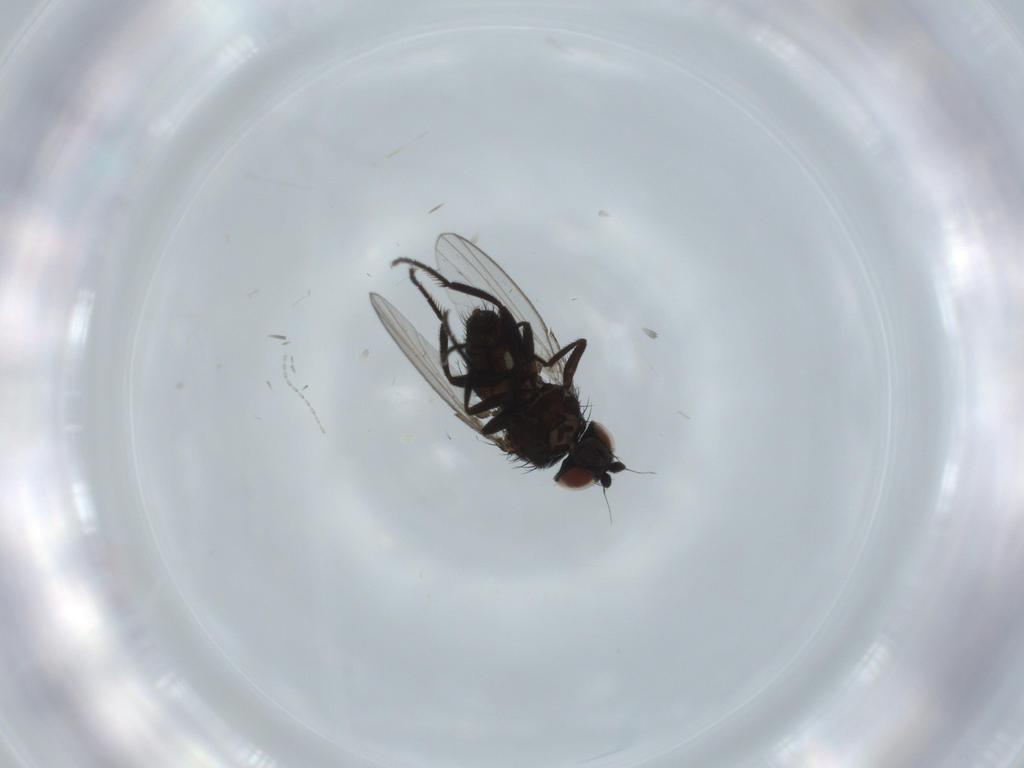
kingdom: Animalia
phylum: Arthropoda
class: Insecta
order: Diptera
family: Milichiidae
